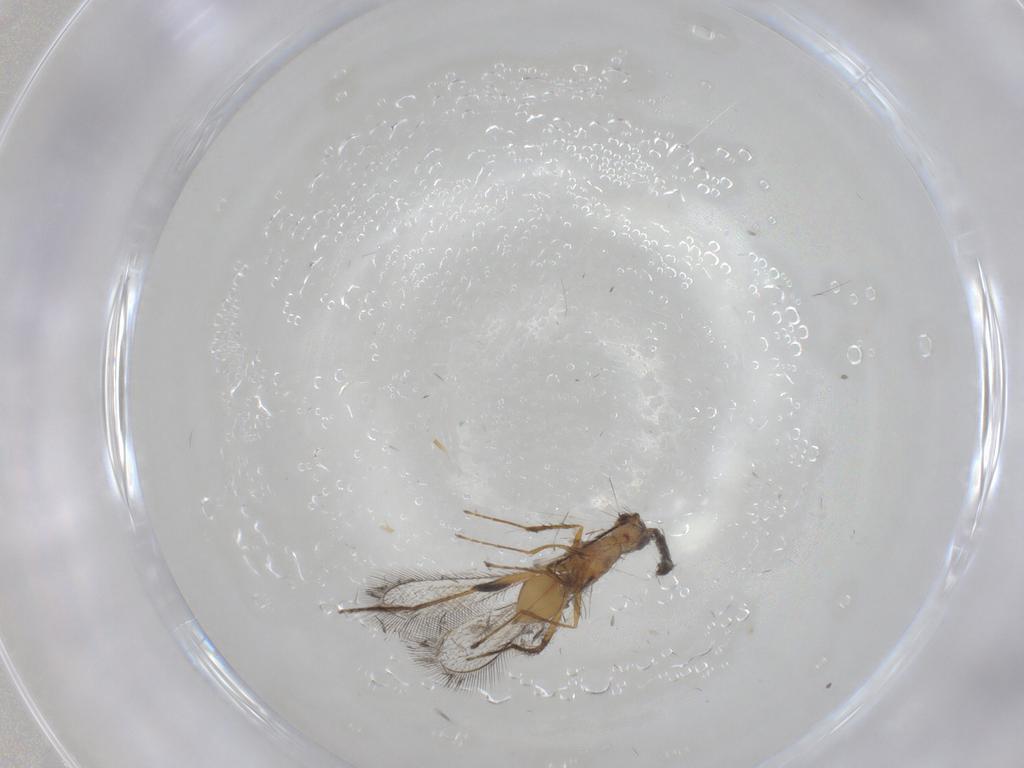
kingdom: Animalia
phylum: Arthropoda
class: Insecta
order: Hymenoptera
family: Mymaridae
